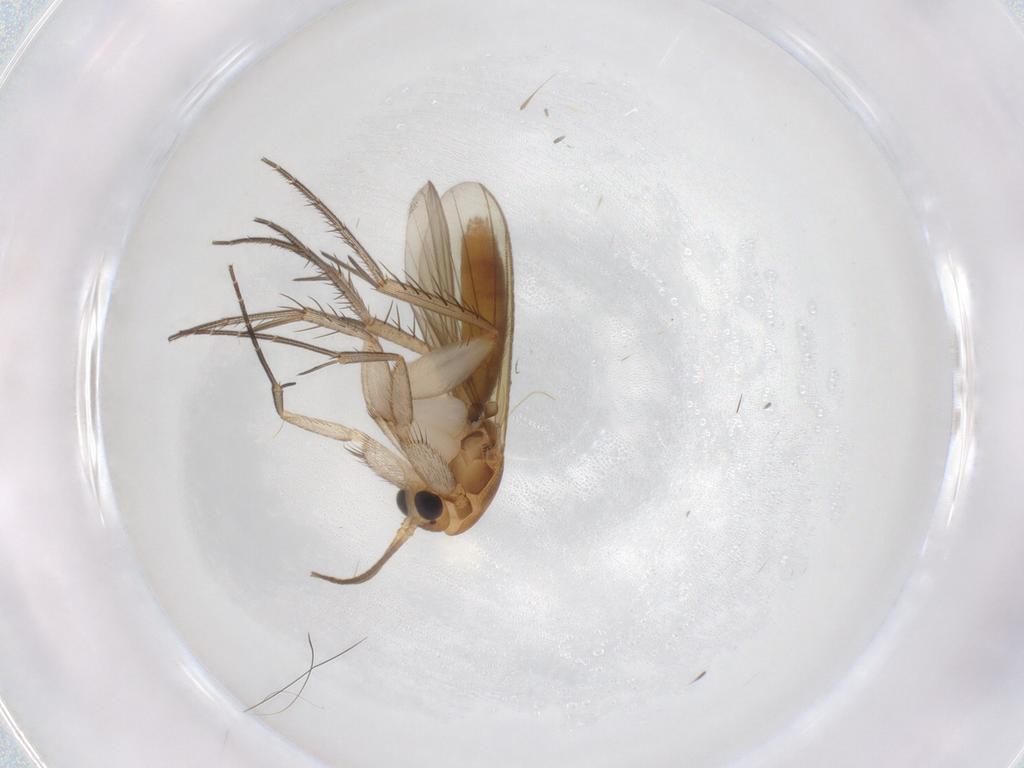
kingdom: Animalia
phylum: Arthropoda
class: Insecta
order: Diptera
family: Mycetophilidae
